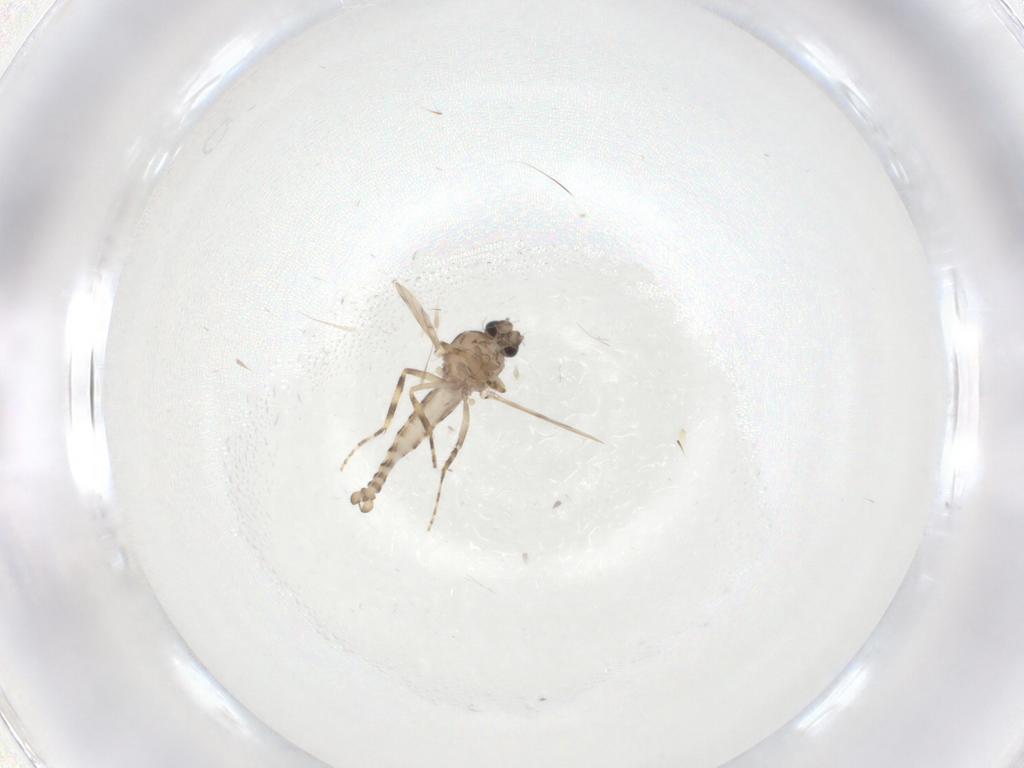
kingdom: Animalia
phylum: Arthropoda
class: Insecta
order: Diptera
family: Ceratopogonidae
